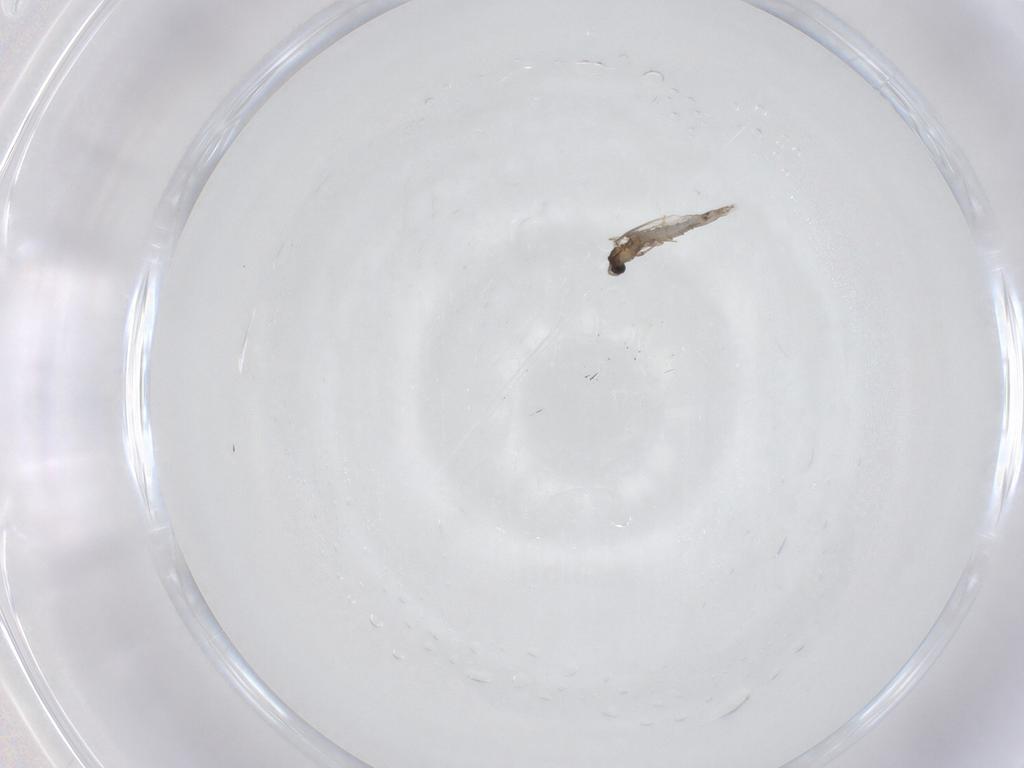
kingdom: Animalia
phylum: Arthropoda
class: Insecta
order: Diptera
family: Cecidomyiidae
